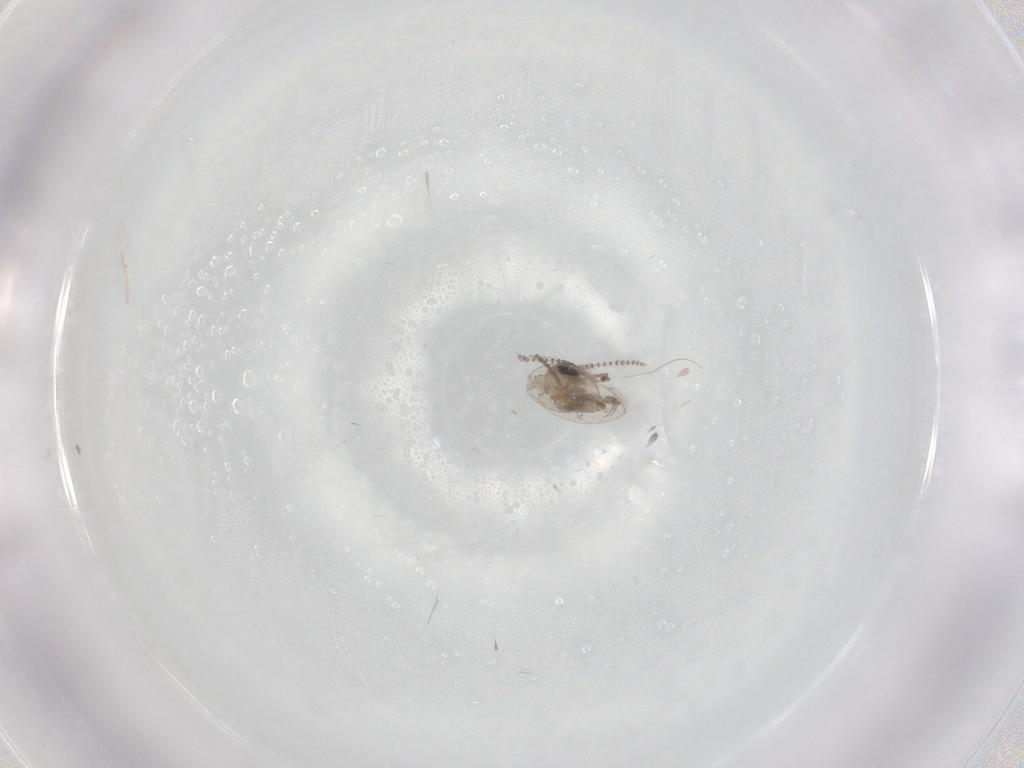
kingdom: Animalia
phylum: Arthropoda
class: Insecta
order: Diptera
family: Psychodidae
